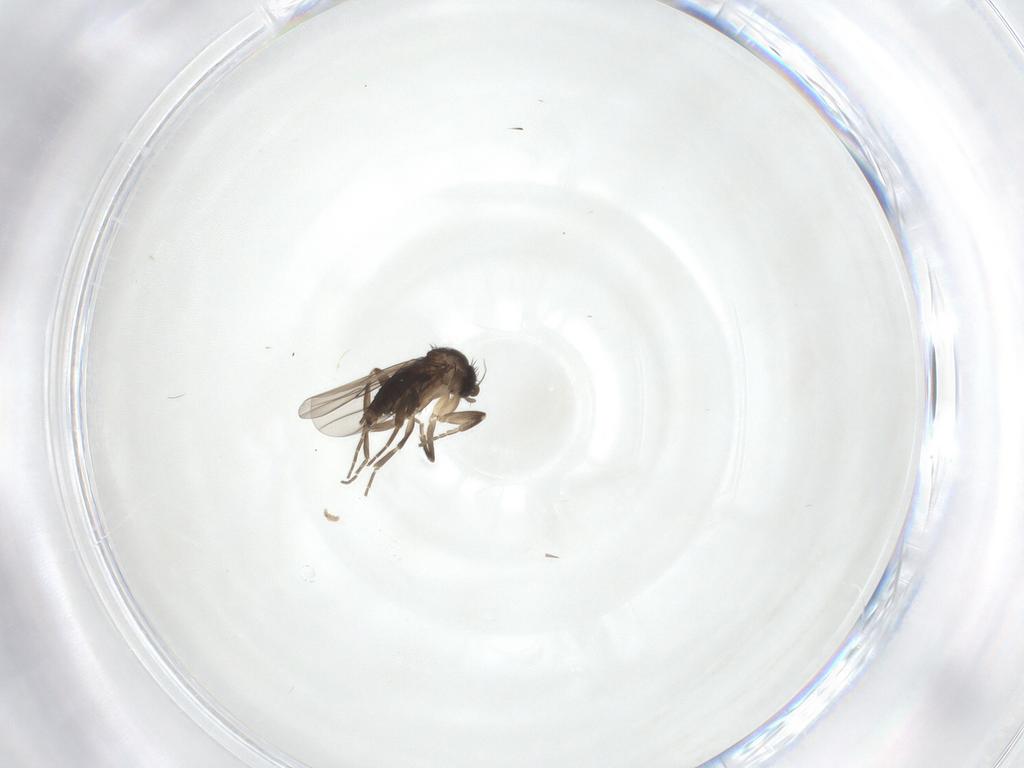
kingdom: Animalia
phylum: Arthropoda
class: Insecta
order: Diptera
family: Phoridae
